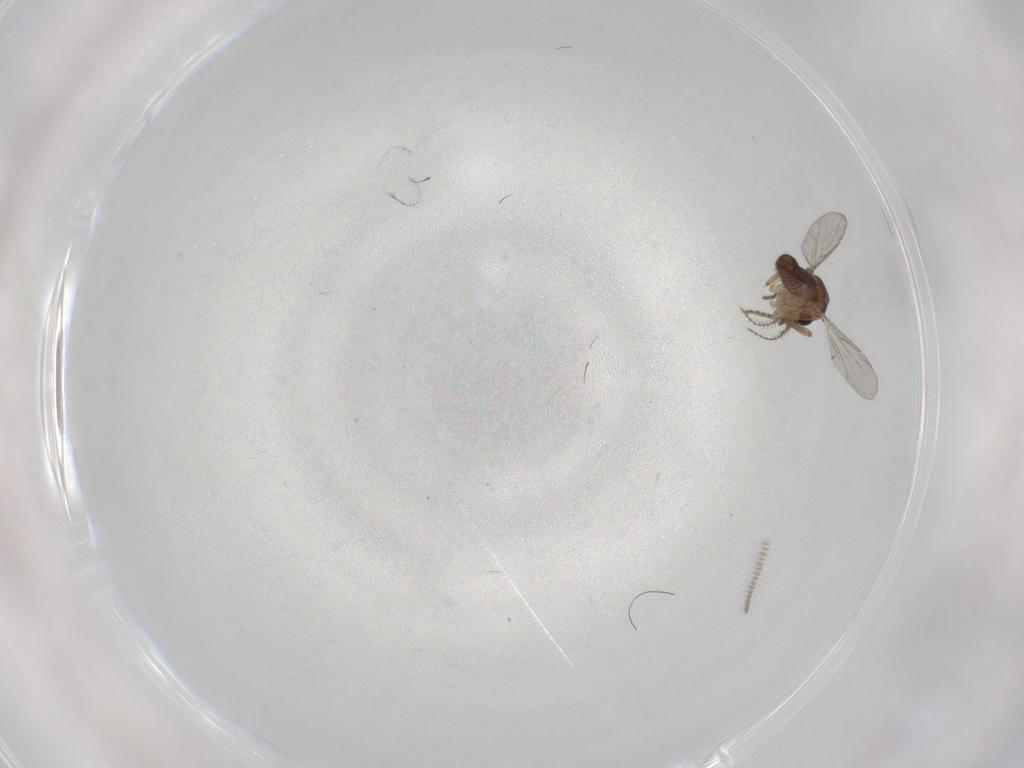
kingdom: Animalia
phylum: Arthropoda
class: Insecta
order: Diptera
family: Ceratopogonidae
